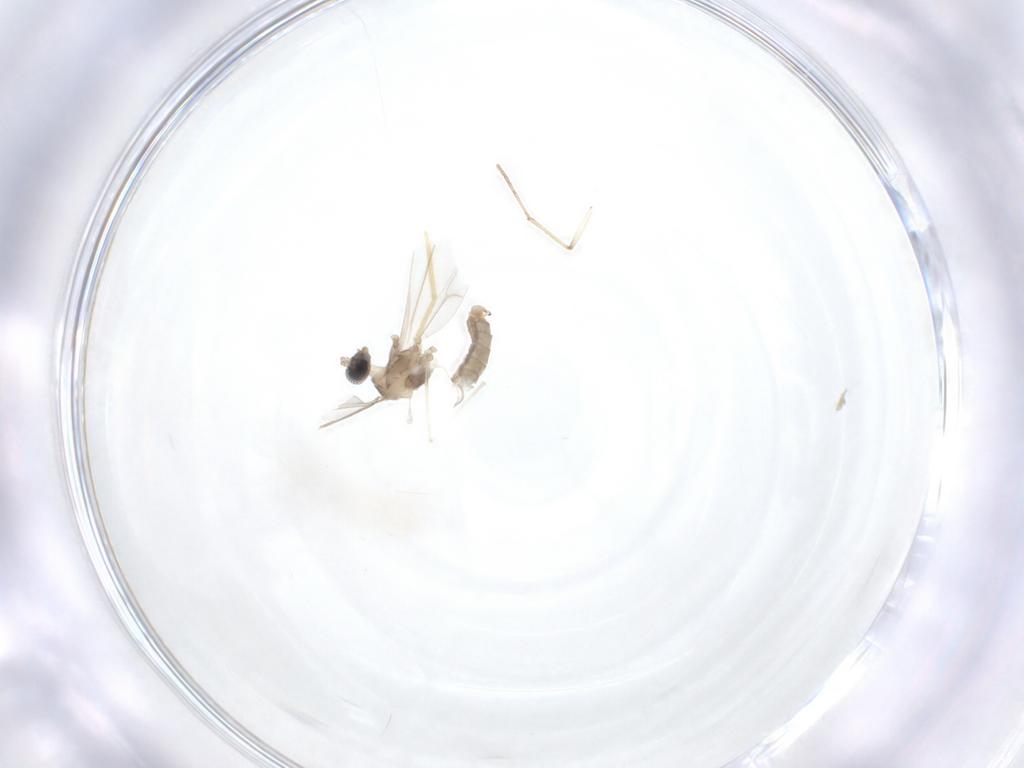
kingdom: Animalia
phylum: Arthropoda
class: Insecta
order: Diptera
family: Cecidomyiidae
